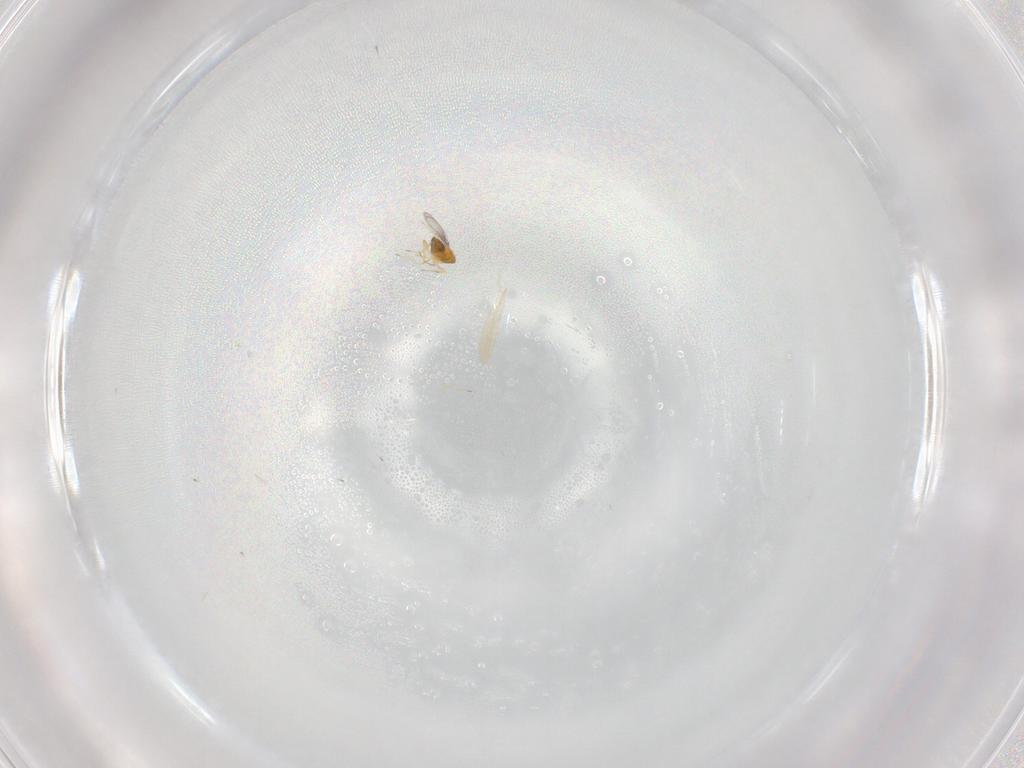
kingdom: Animalia
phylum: Arthropoda
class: Insecta
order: Hymenoptera
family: Trichogrammatidae
